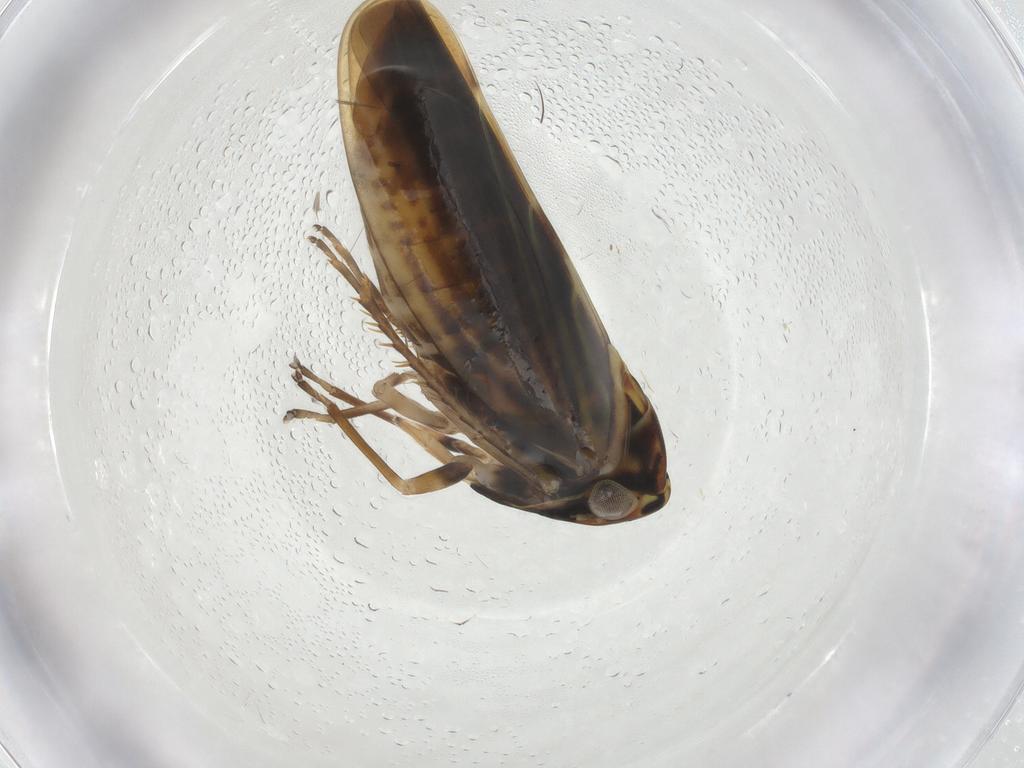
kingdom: Animalia
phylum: Arthropoda
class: Insecta
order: Hemiptera
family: Cicadellidae
